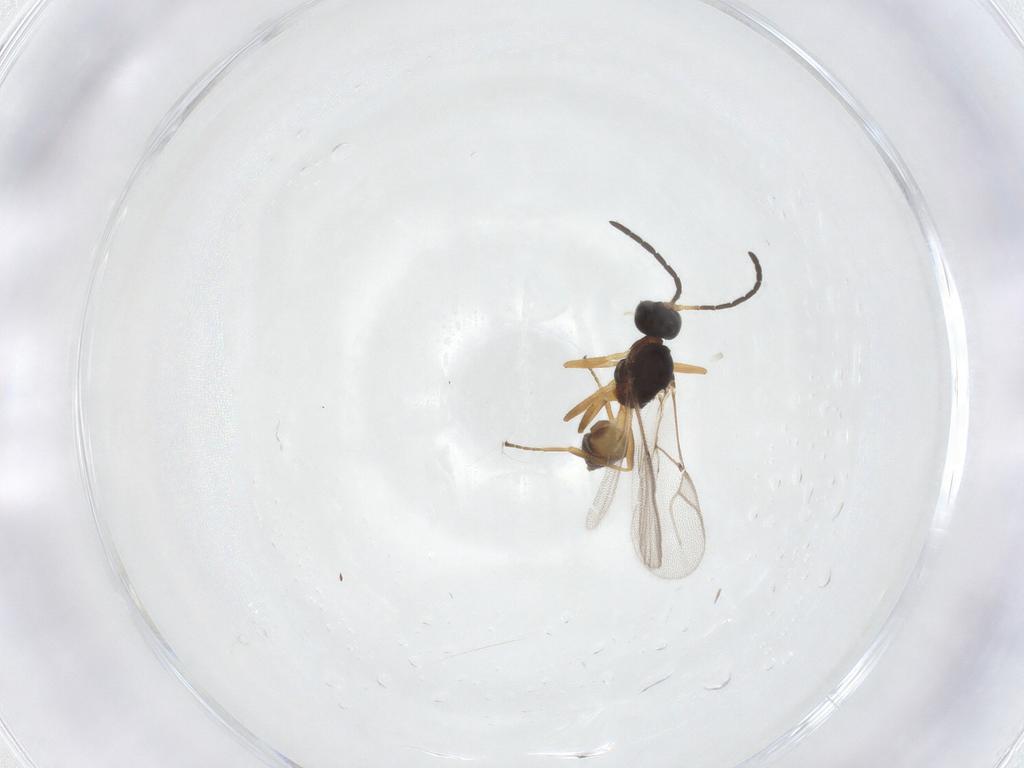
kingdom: Animalia
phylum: Arthropoda
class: Insecta
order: Hymenoptera
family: Braconidae
